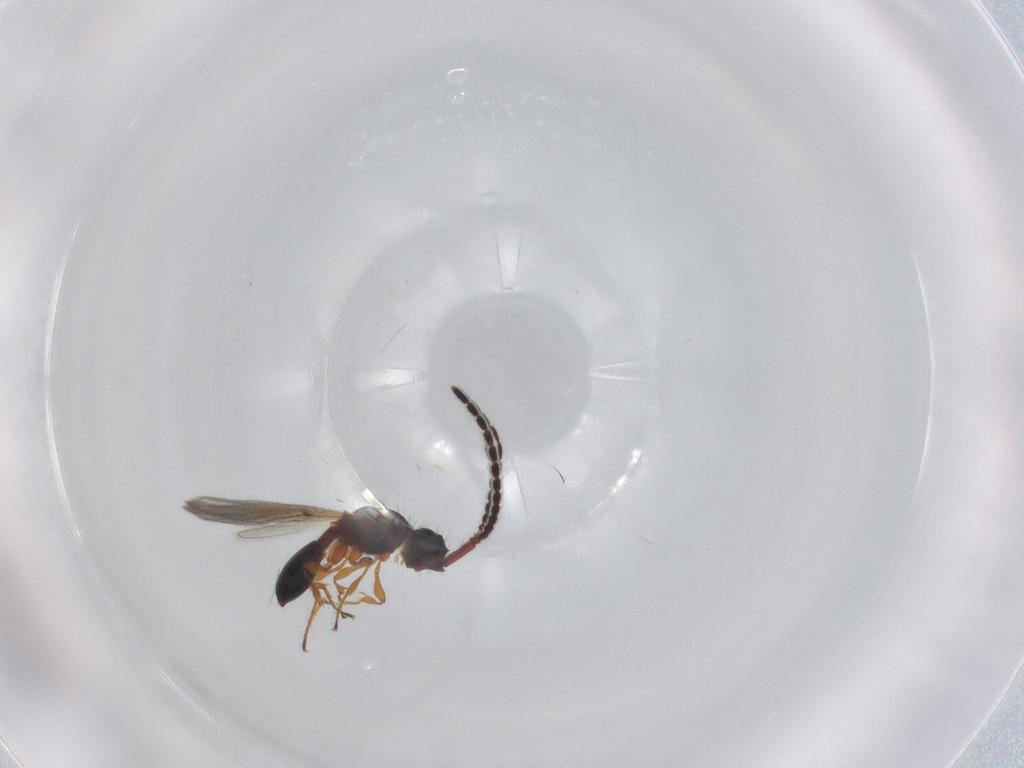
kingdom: Animalia
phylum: Arthropoda
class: Insecta
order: Hymenoptera
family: Diapriidae
